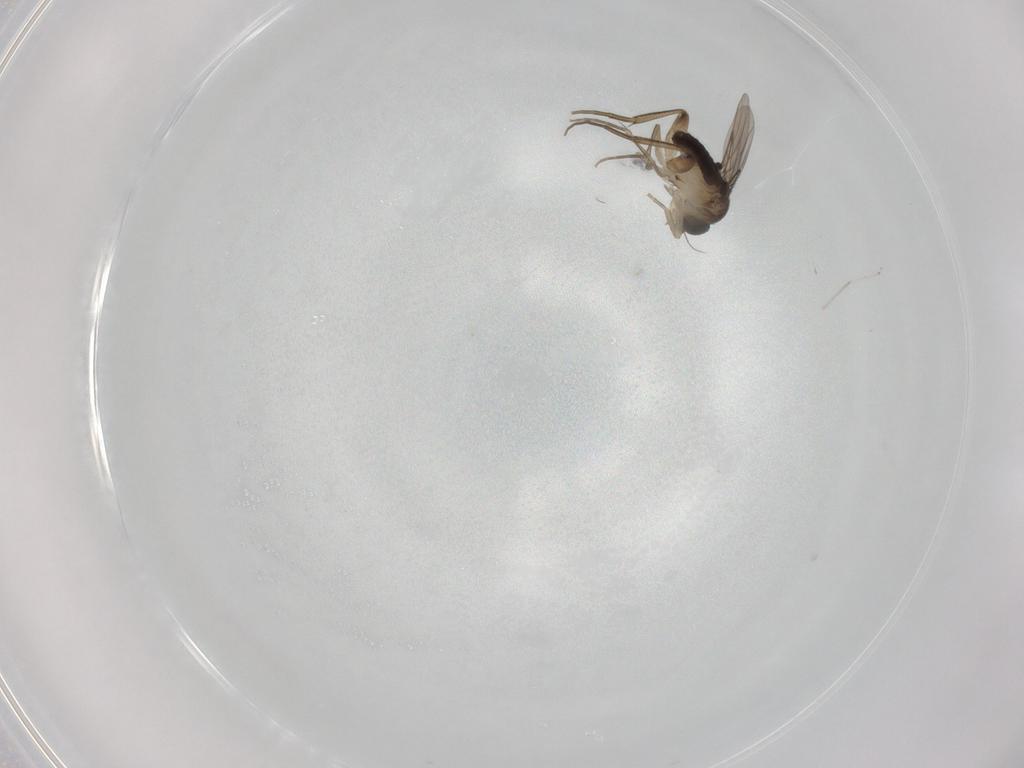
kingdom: Animalia
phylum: Arthropoda
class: Insecta
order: Diptera
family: Phoridae
